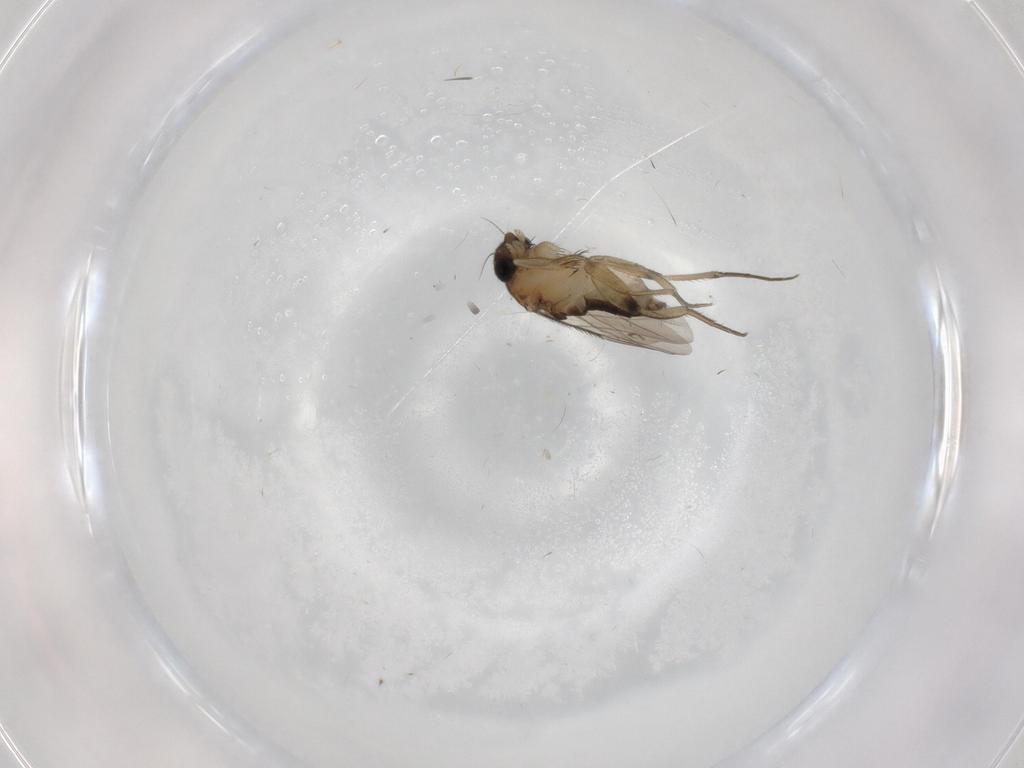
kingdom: Animalia
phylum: Arthropoda
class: Insecta
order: Diptera
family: Phoridae
